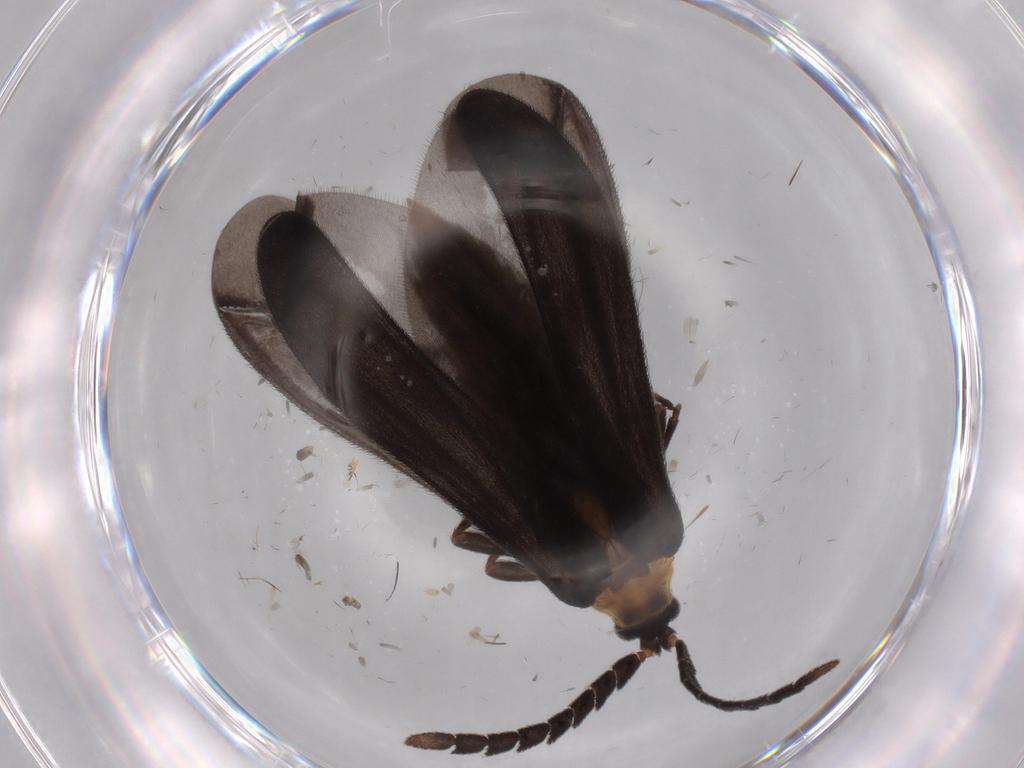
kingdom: Animalia
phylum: Arthropoda
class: Insecta
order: Coleoptera
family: Lycidae
